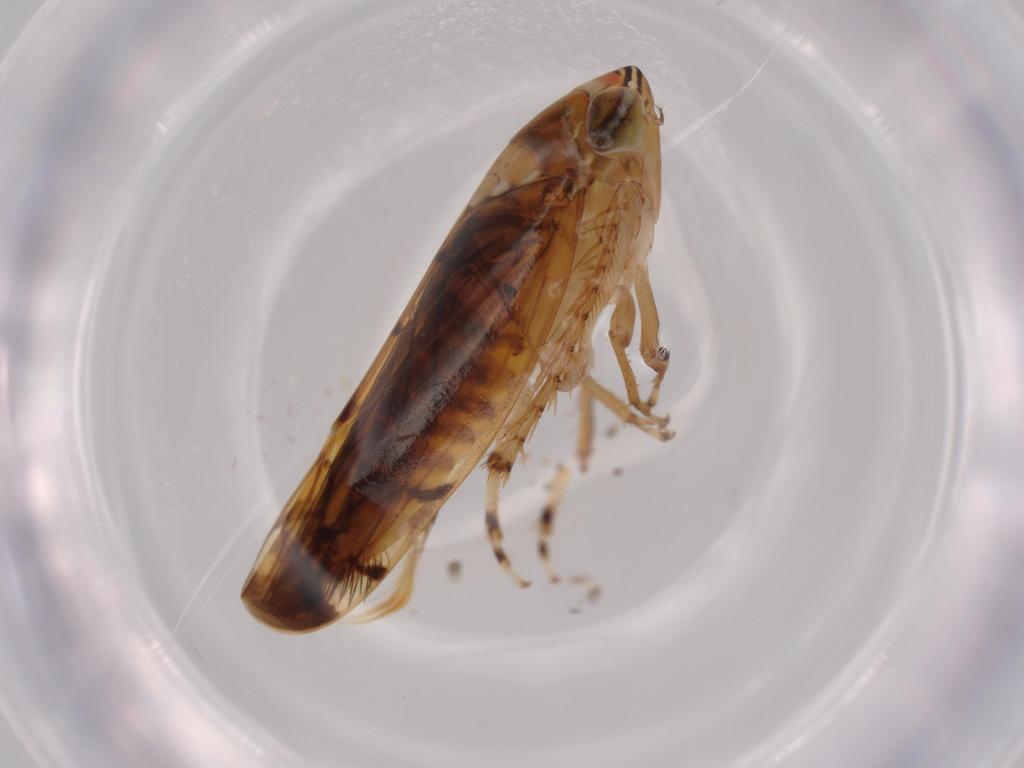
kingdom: Animalia
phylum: Arthropoda
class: Insecta
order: Hemiptera
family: Cicadellidae
